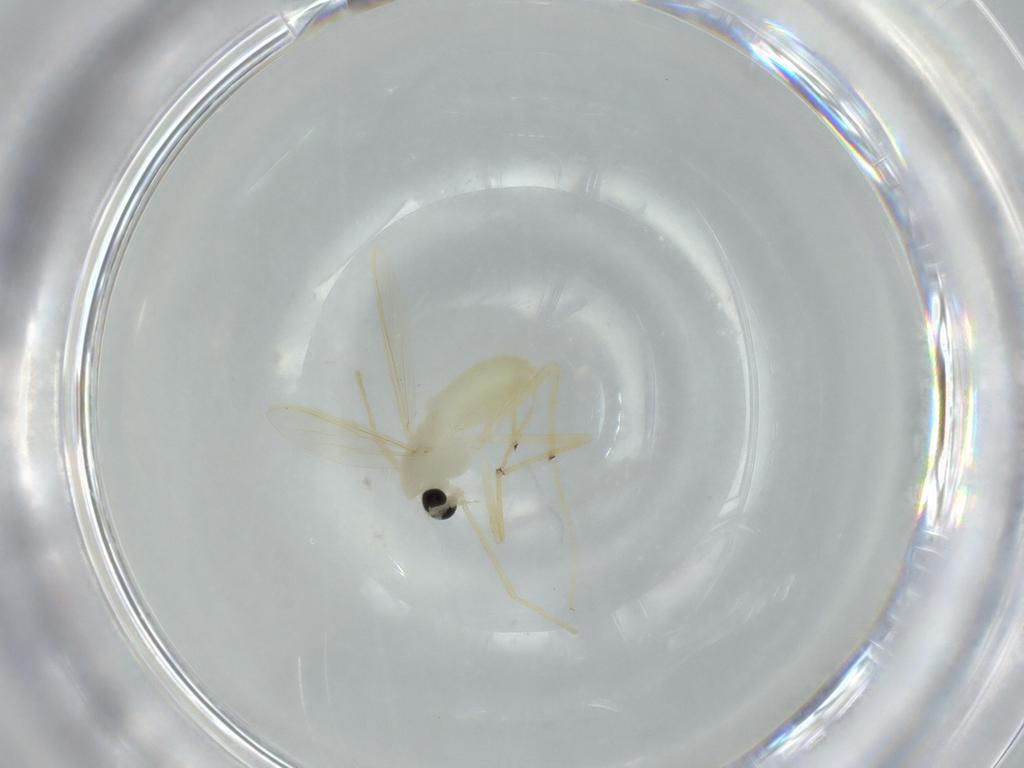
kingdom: Animalia
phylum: Arthropoda
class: Insecta
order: Diptera
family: Chironomidae
